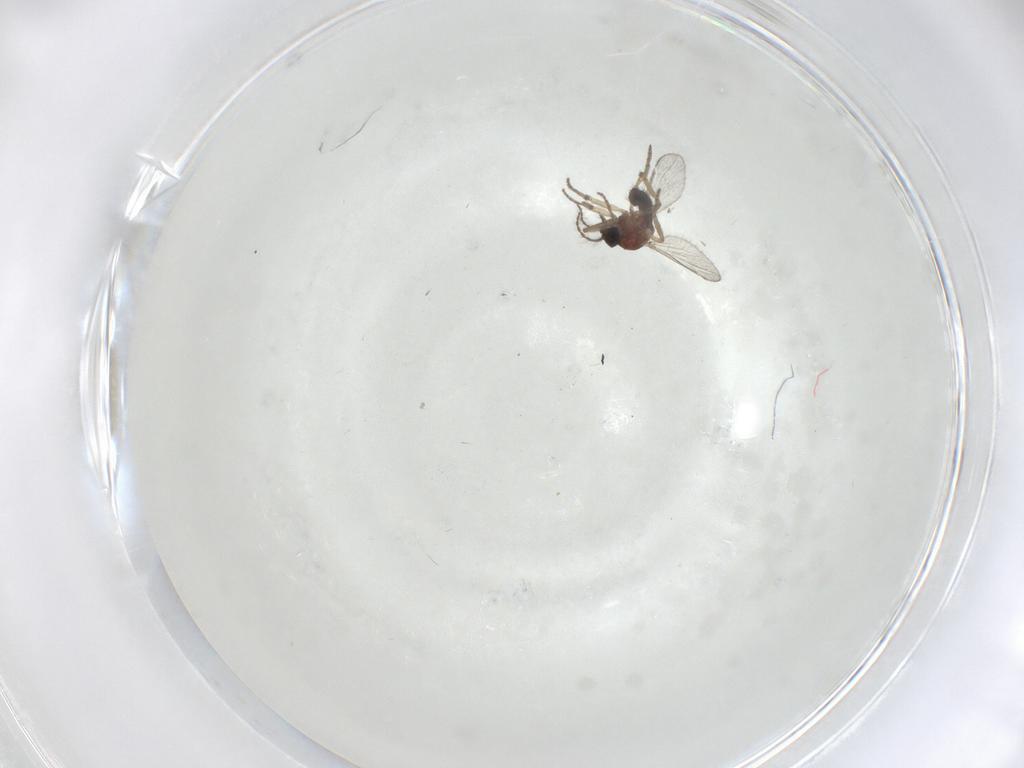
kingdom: Animalia
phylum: Arthropoda
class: Insecta
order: Diptera
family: Ceratopogonidae
